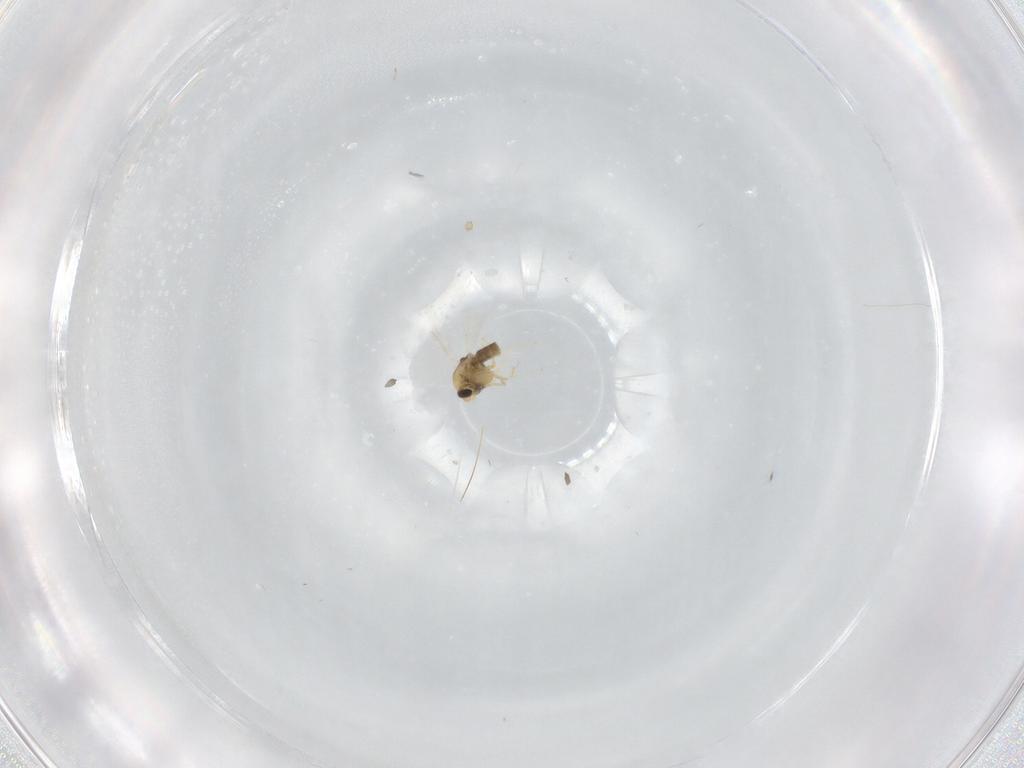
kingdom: Animalia
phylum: Arthropoda
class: Insecta
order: Diptera
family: Chironomidae
